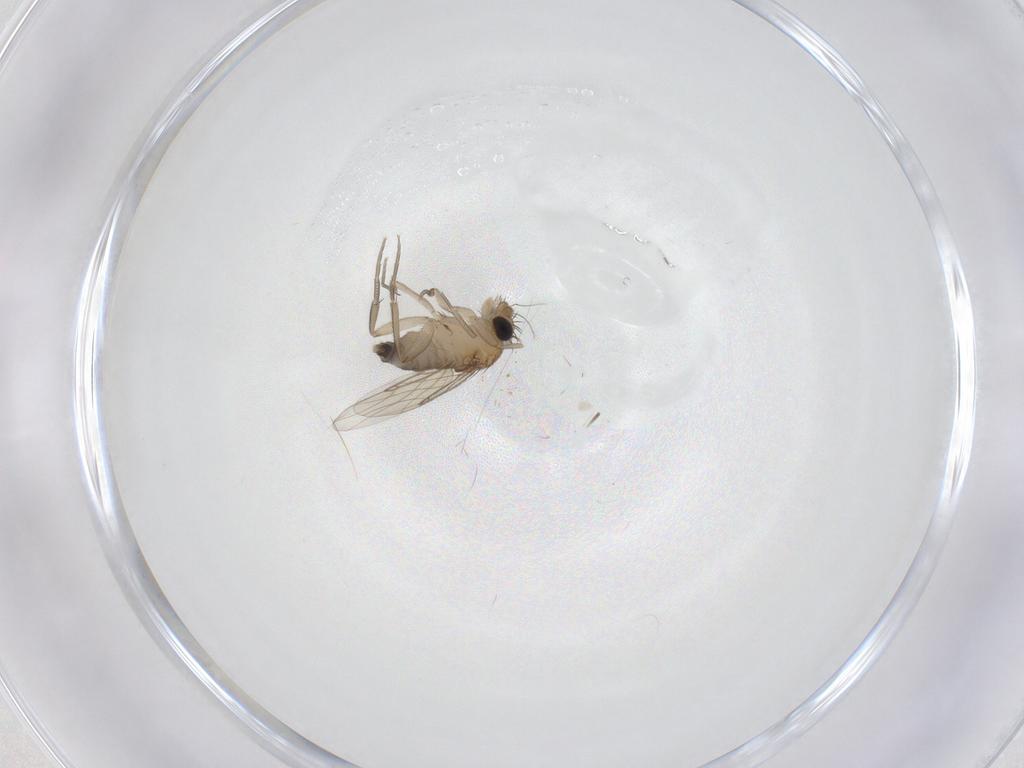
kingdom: Animalia
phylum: Arthropoda
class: Insecta
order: Diptera
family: Phoridae
